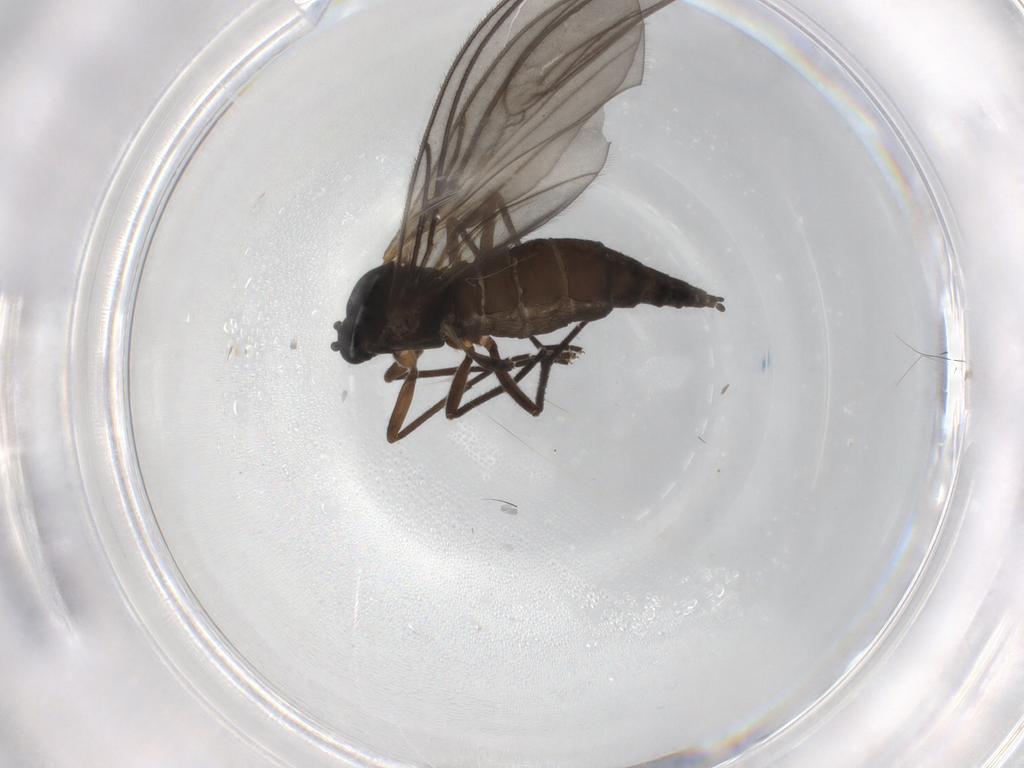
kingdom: Animalia
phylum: Arthropoda
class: Insecta
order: Diptera
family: Sciaridae
